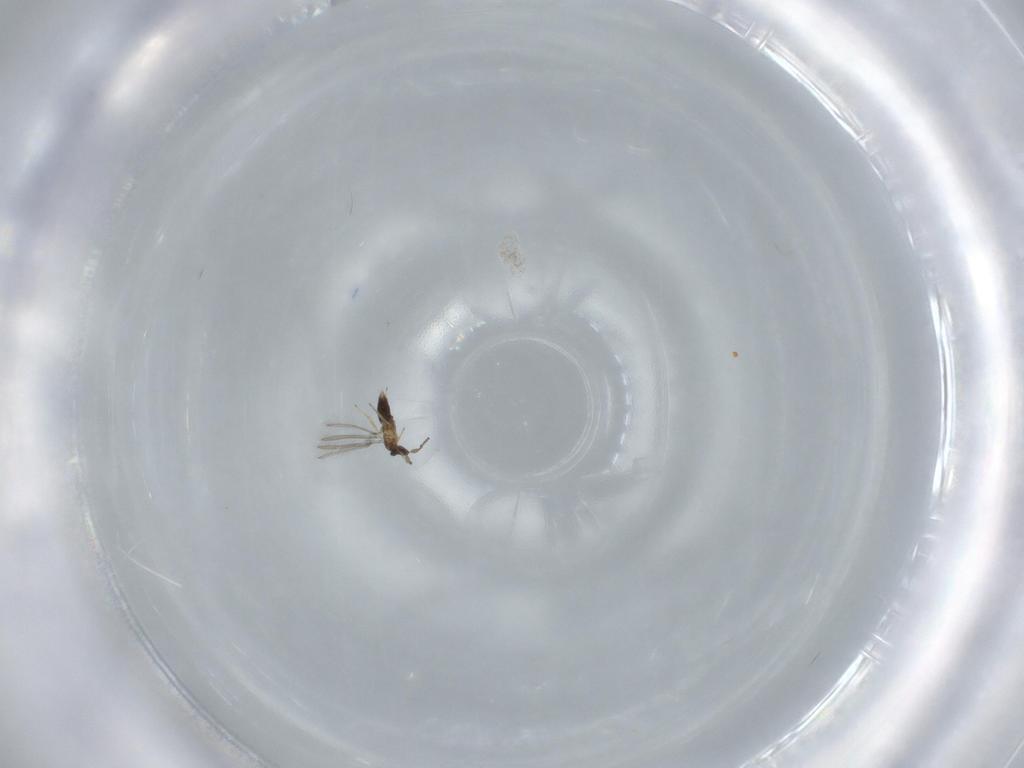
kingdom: Animalia
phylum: Arthropoda
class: Insecta
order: Hymenoptera
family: Mymaridae
